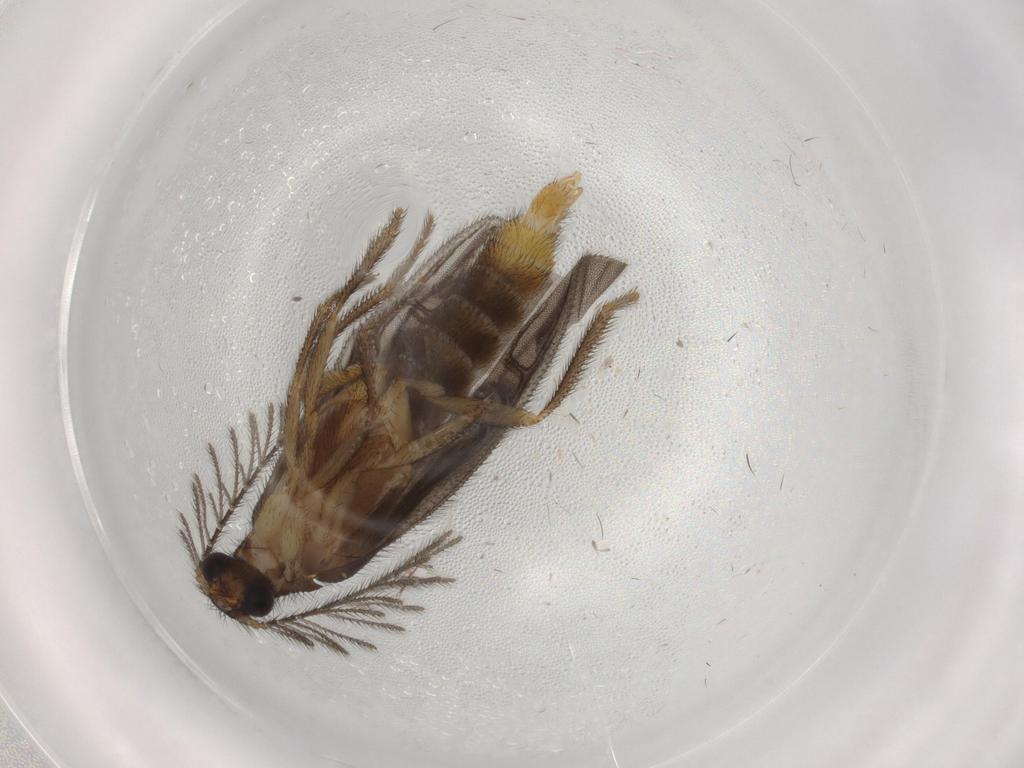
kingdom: Animalia
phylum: Arthropoda
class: Insecta
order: Coleoptera
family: Phengodidae
